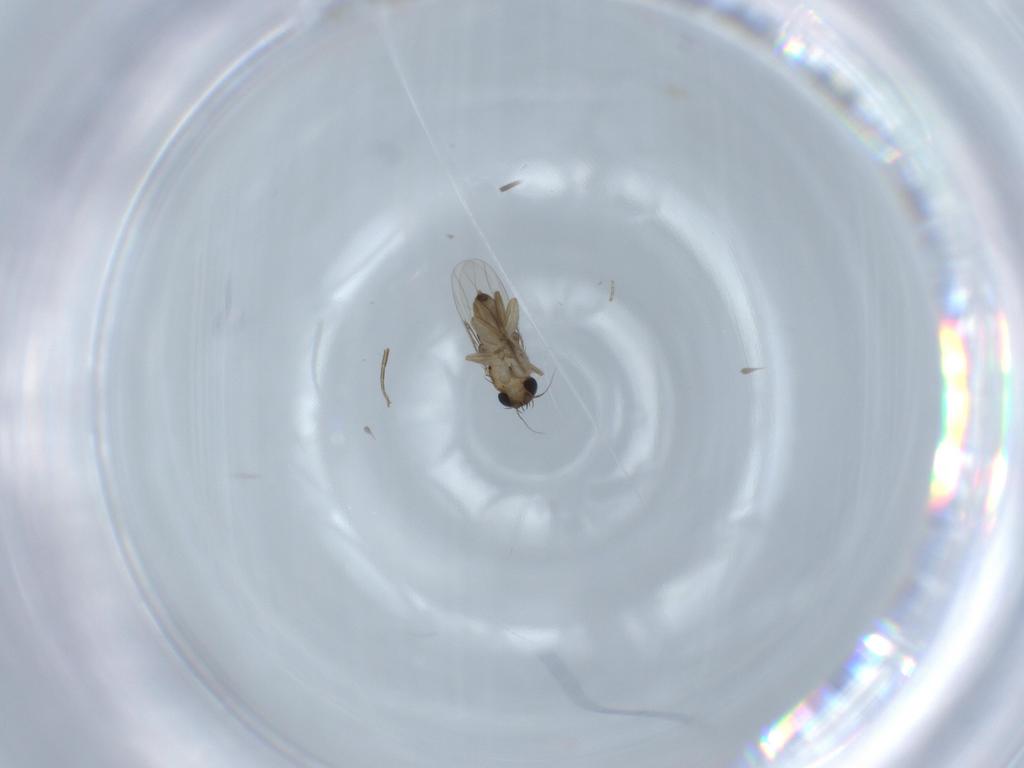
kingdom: Animalia
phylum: Arthropoda
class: Insecta
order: Diptera
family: Phoridae
